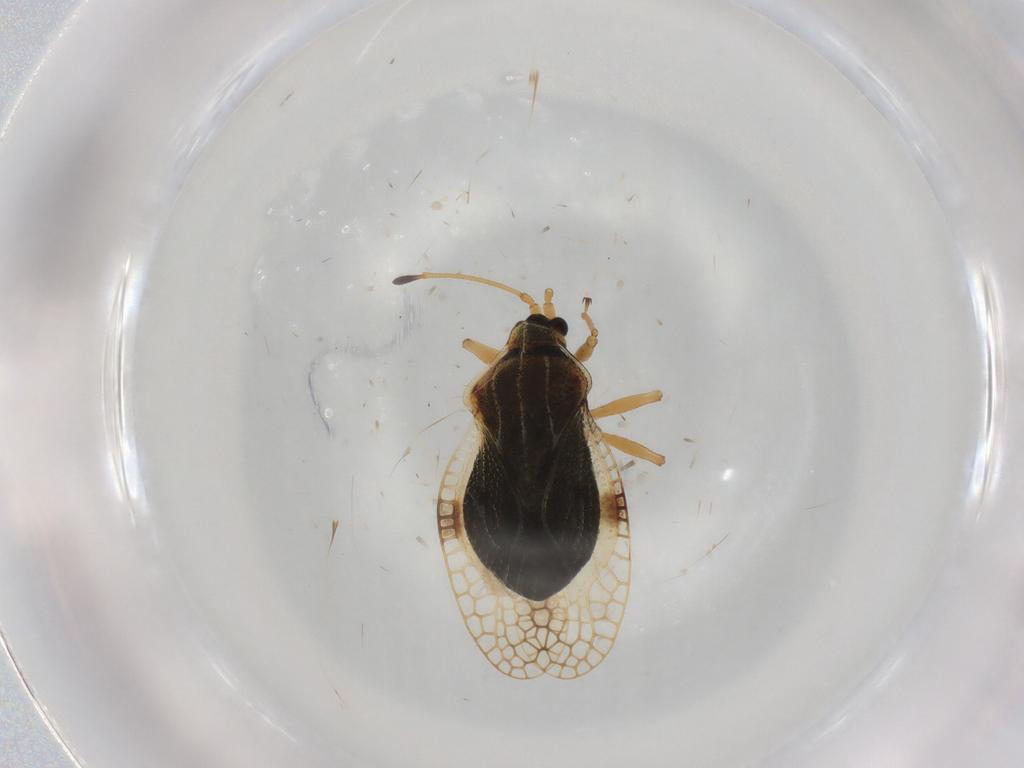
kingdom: Animalia
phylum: Arthropoda
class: Insecta
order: Hemiptera
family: Tingidae
